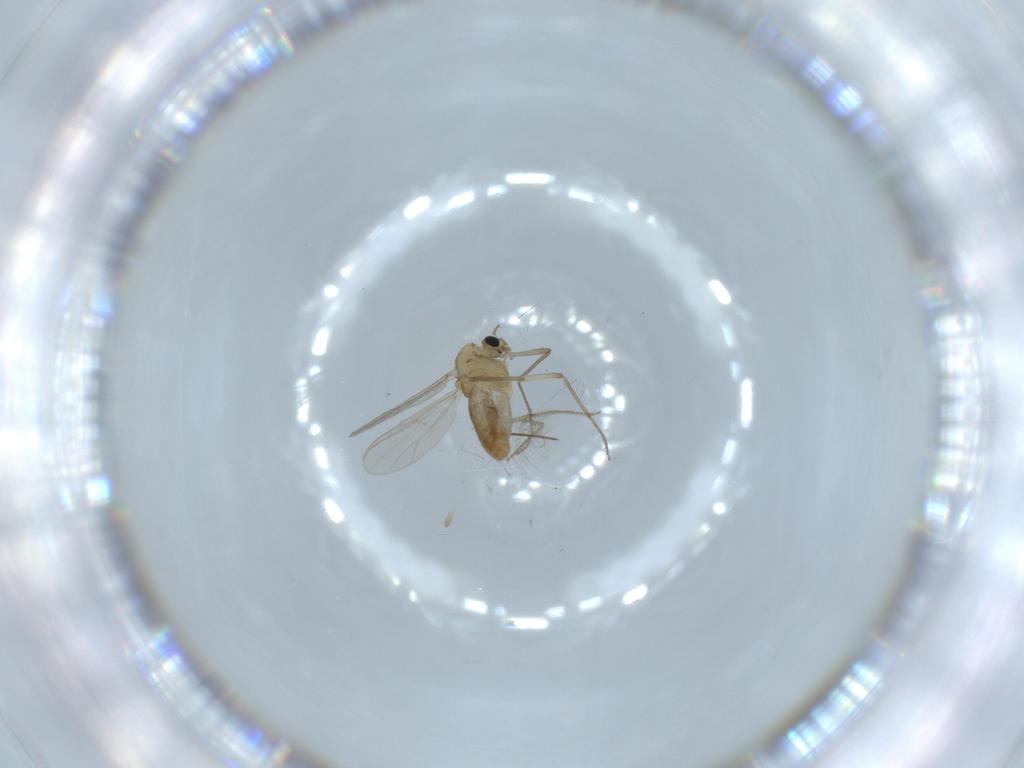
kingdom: Animalia
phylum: Arthropoda
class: Insecta
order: Diptera
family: Chironomidae
